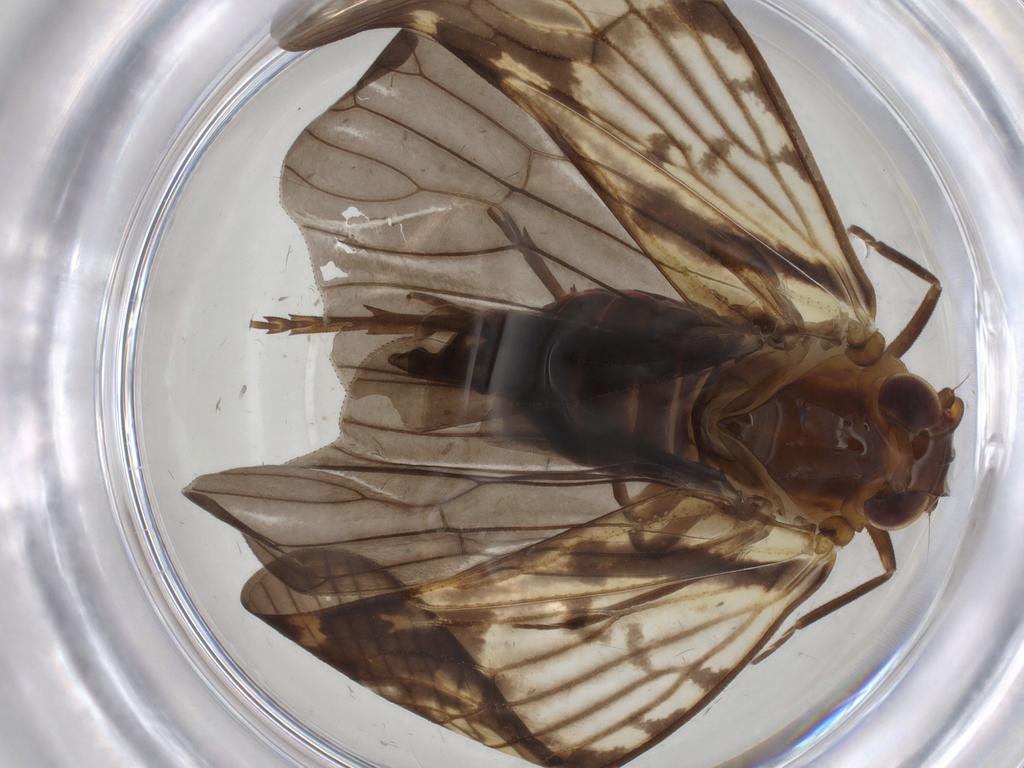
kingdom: Animalia
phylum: Arthropoda
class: Insecta
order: Hemiptera
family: Cixiidae
